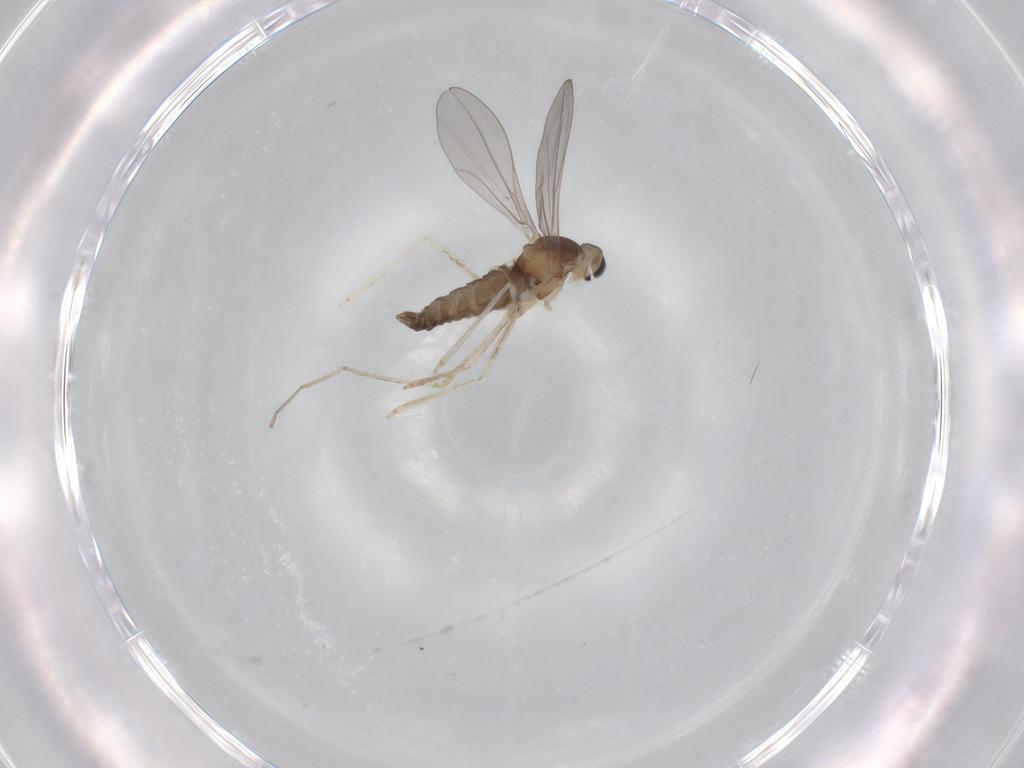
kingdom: Animalia
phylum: Arthropoda
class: Insecta
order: Diptera
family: Cecidomyiidae
